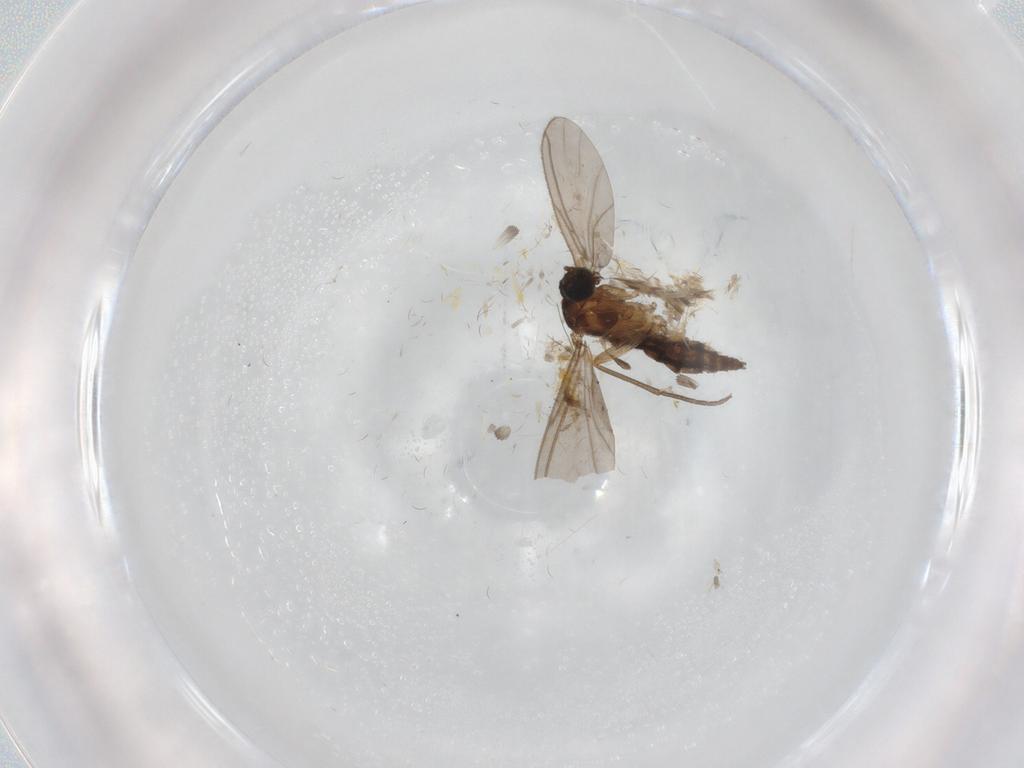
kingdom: Animalia
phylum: Arthropoda
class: Insecta
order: Diptera
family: Sciaridae
